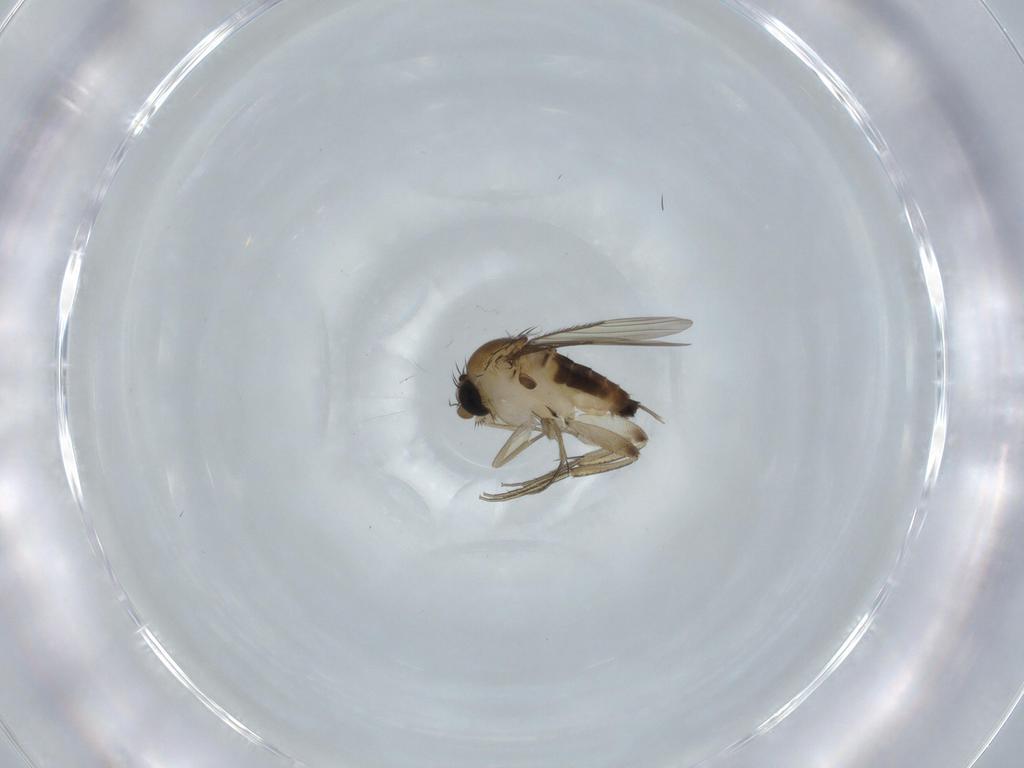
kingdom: Animalia
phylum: Arthropoda
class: Insecta
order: Diptera
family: Phoridae
